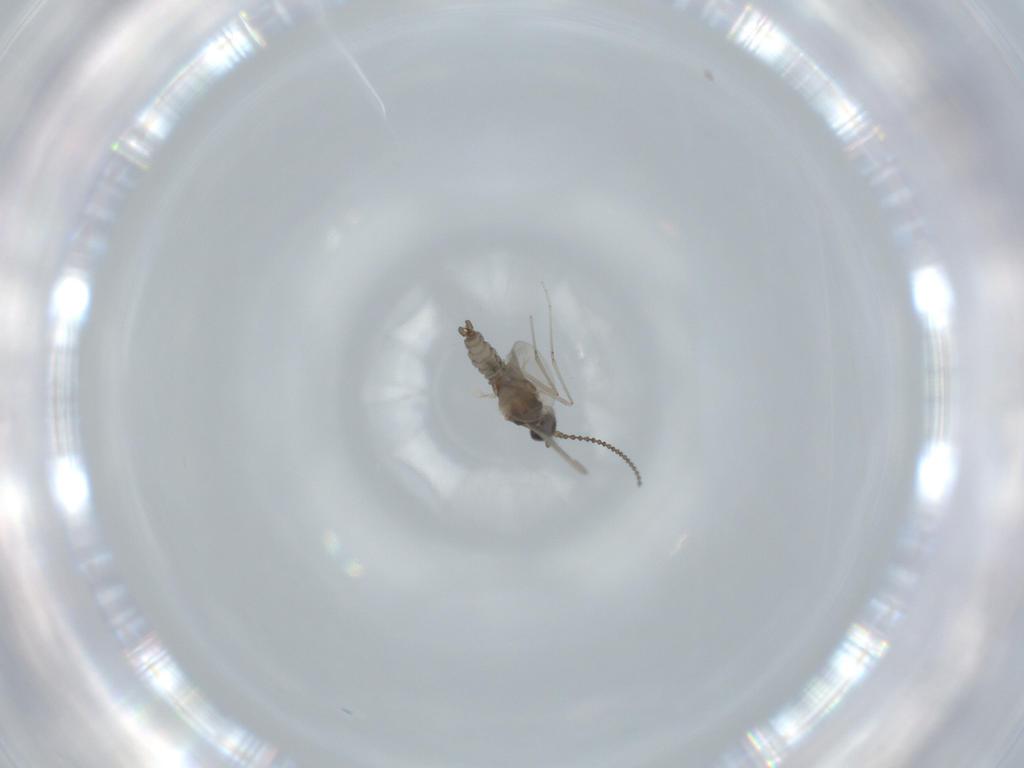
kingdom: Animalia
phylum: Arthropoda
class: Insecta
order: Diptera
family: Cecidomyiidae
